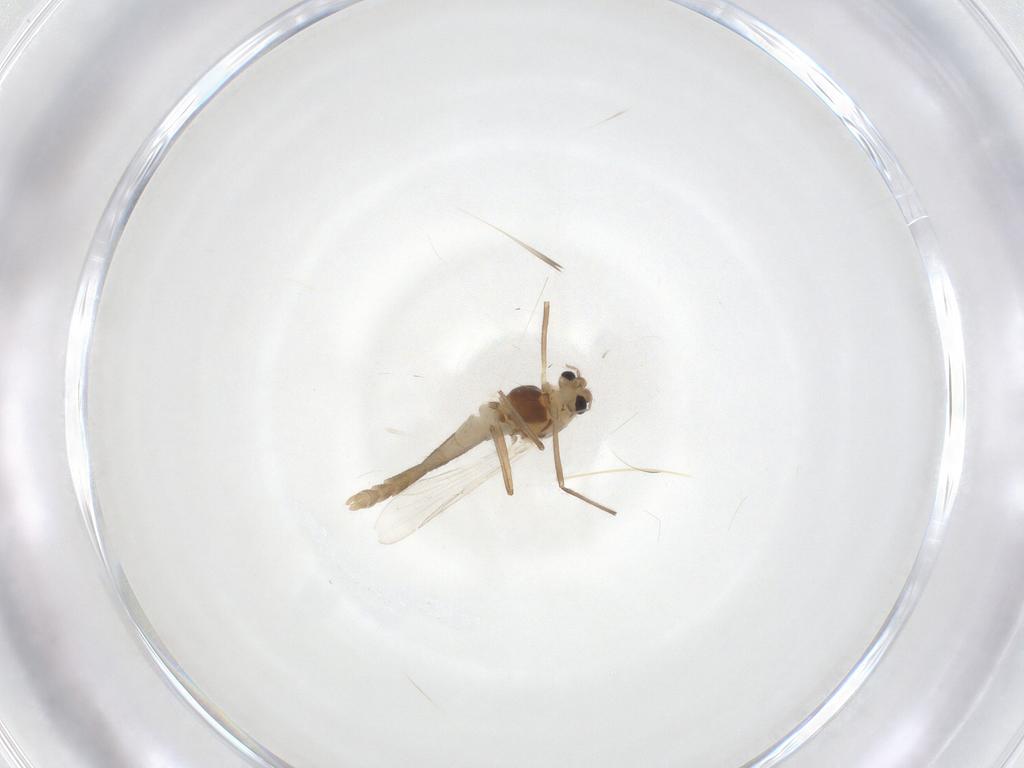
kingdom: Animalia
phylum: Arthropoda
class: Insecta
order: Diptera
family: Chironomidae
